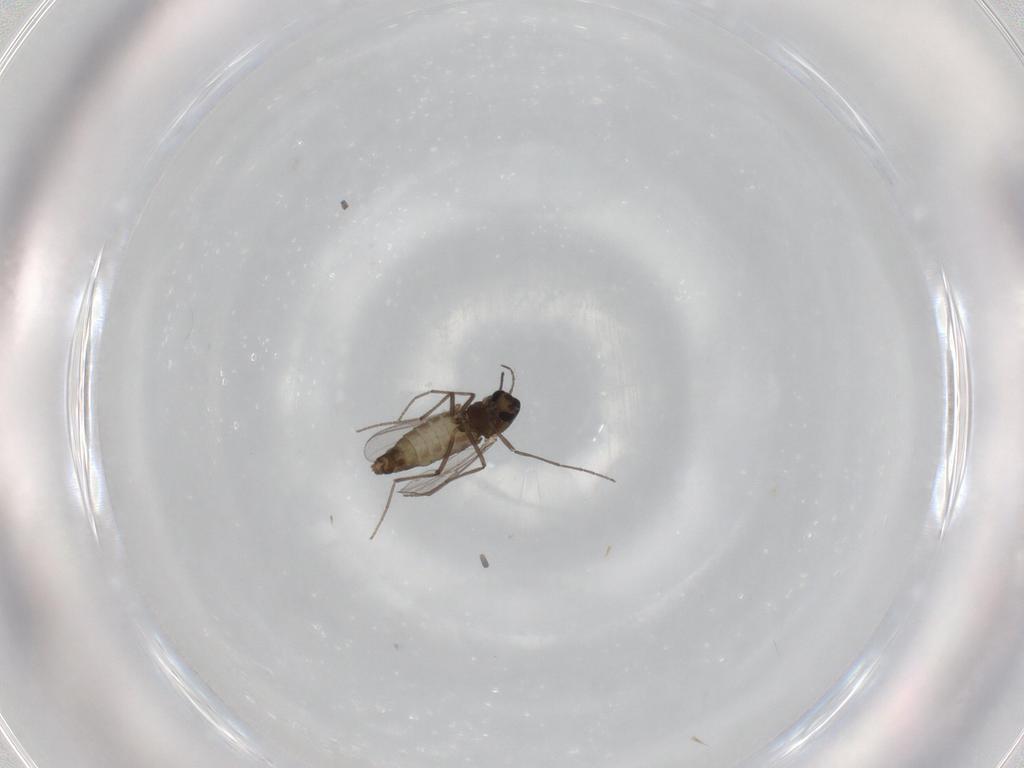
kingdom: Animalia
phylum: Arthropoda
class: Insecta
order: Diptera
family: Chironomidae
